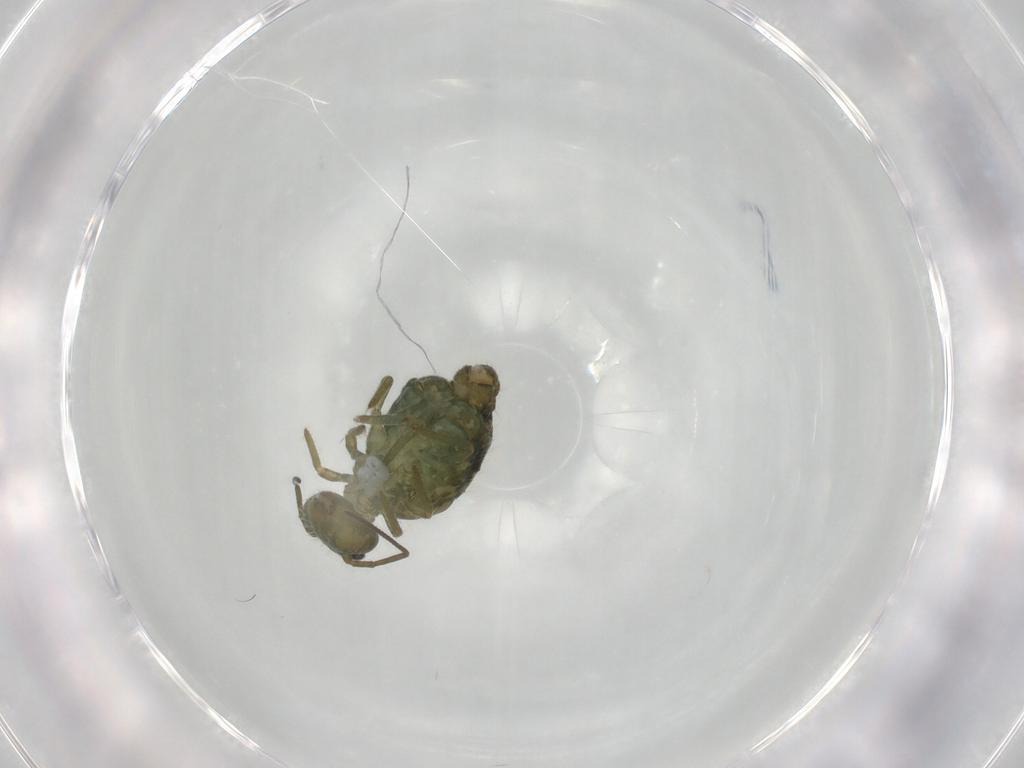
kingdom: Animalia
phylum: Arthropoda
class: Collembola
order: Symphypleona
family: Sminthuridae
